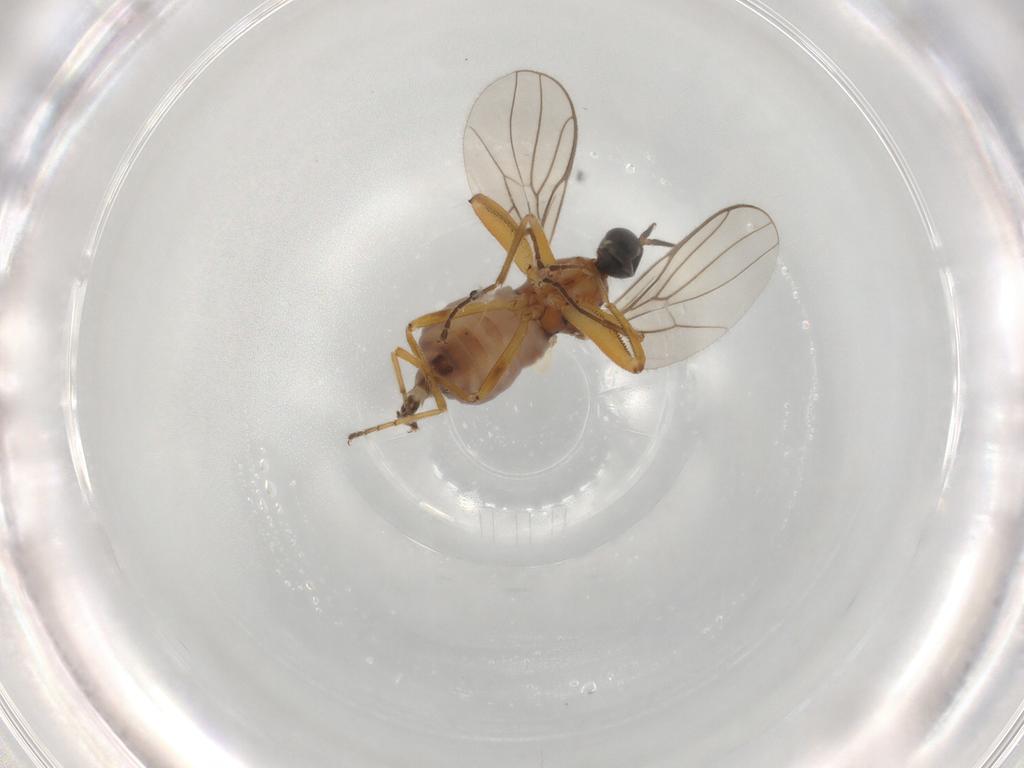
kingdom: Animalia
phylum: Arthropoda
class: Insecta
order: Diptera
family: Hybotidae
